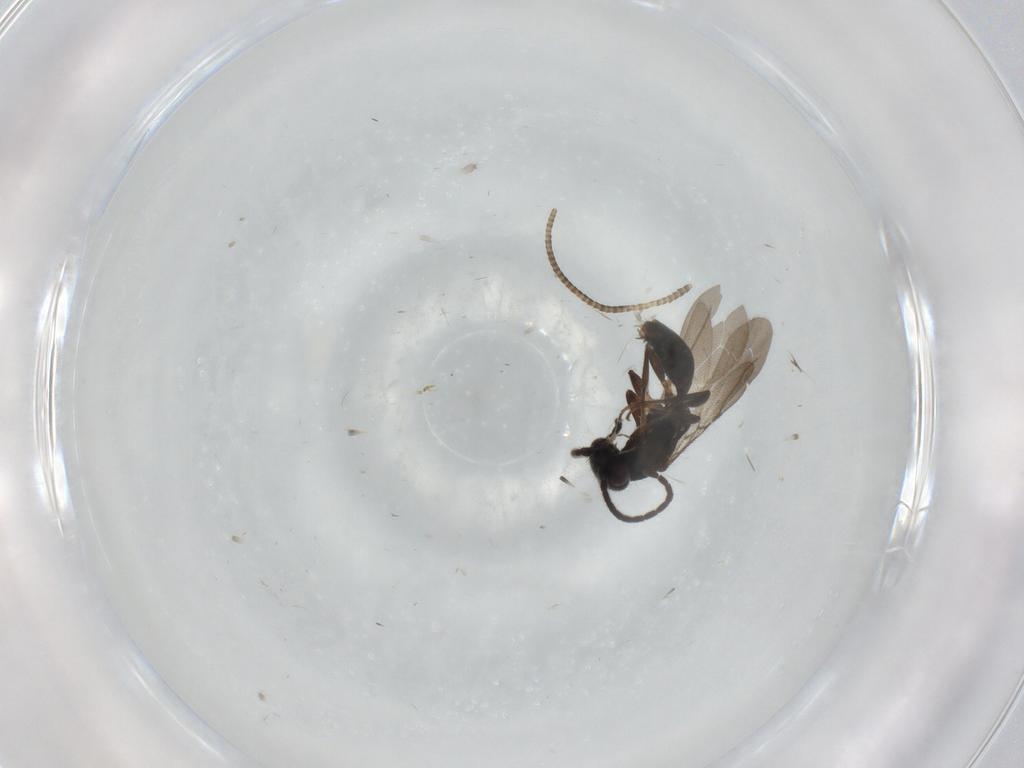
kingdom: Animalia
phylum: Arthropoda
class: Insecta
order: Hymenoptera
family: Bethylidae
